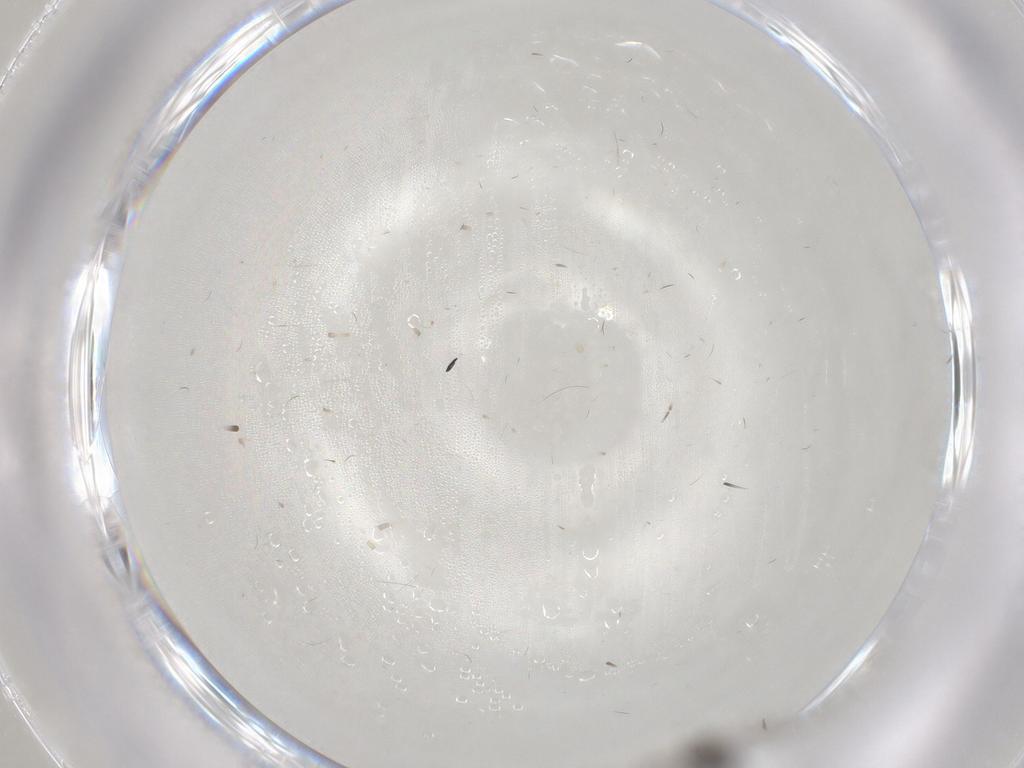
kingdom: Animalia
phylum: Arthropoda
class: Insecta
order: Diptera
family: Sciaridae
